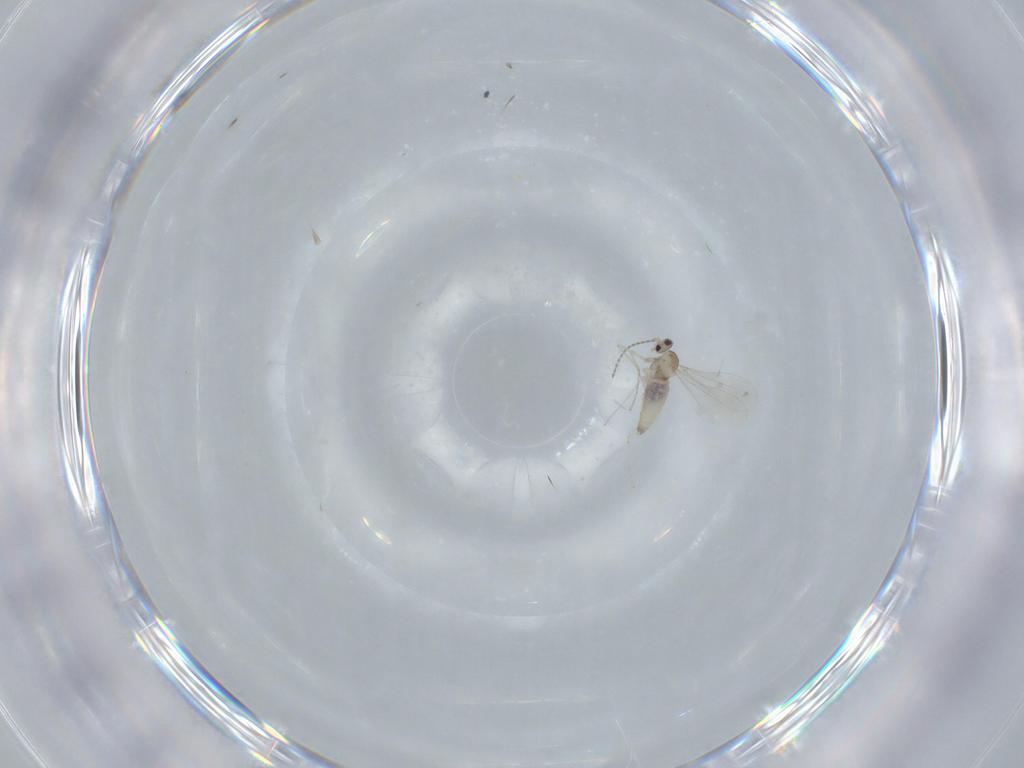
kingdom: Animalia
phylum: Arthropoda
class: Insecta
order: Diptera
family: Cecidomyiidae
